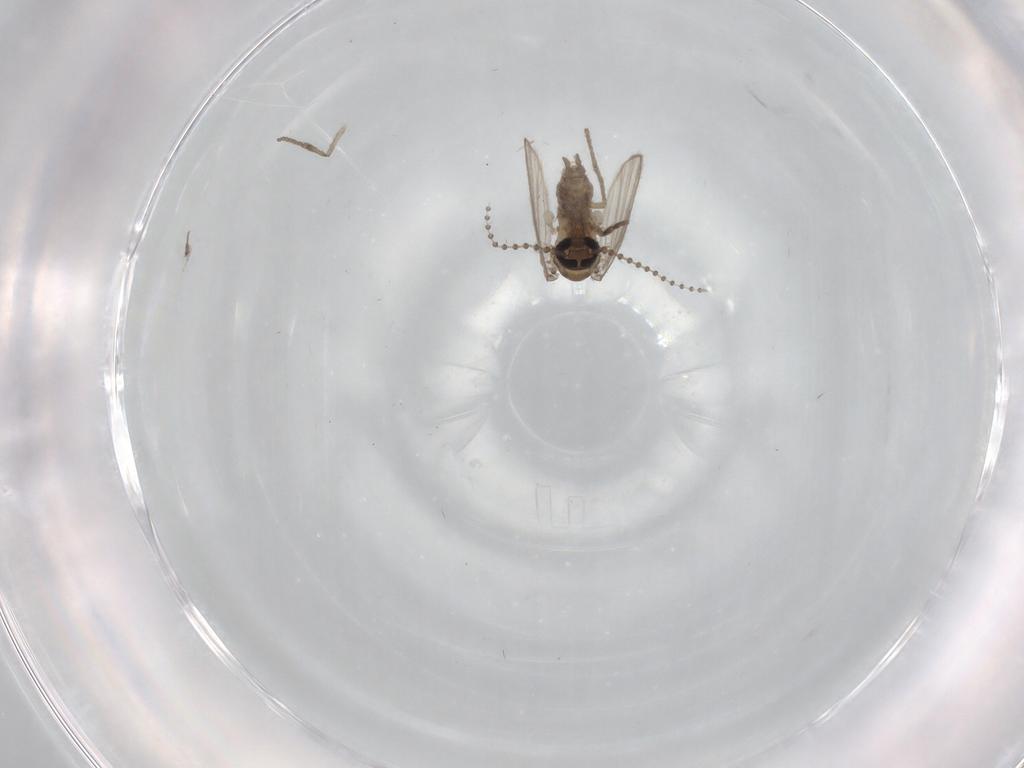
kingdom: Animalia
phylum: Arthropoda
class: Insecta
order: Diptera
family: Psychodidae
